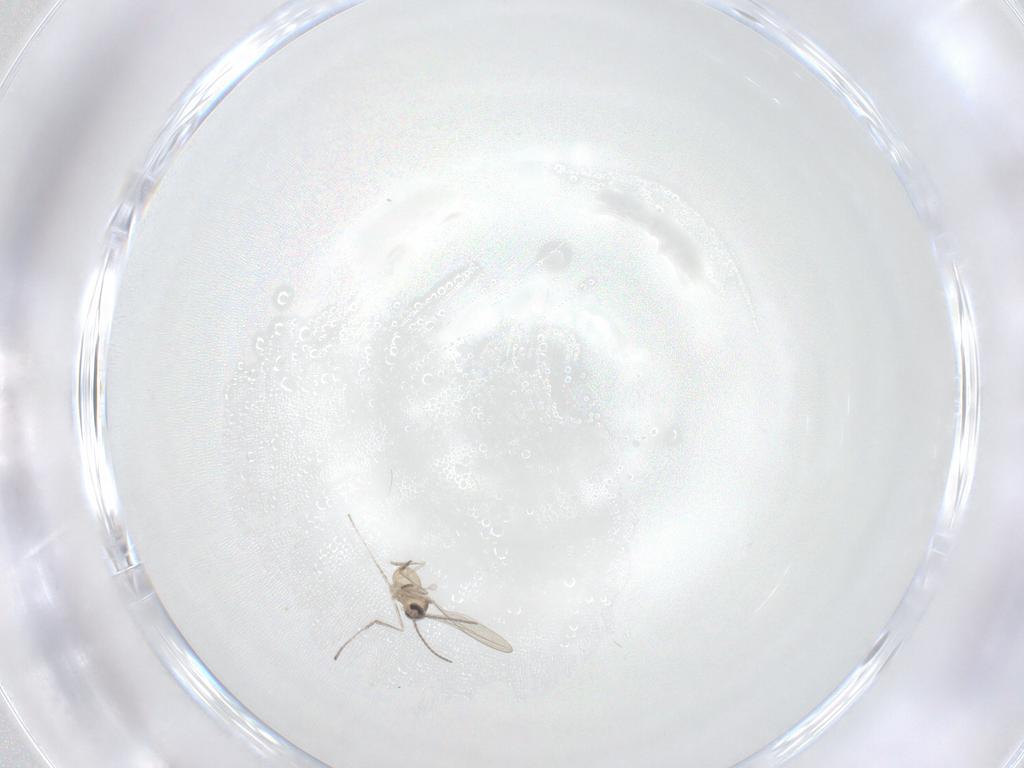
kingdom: Animalia
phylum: Arthropoda
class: Insecta
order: Diptera
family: Cecidomyiidae
